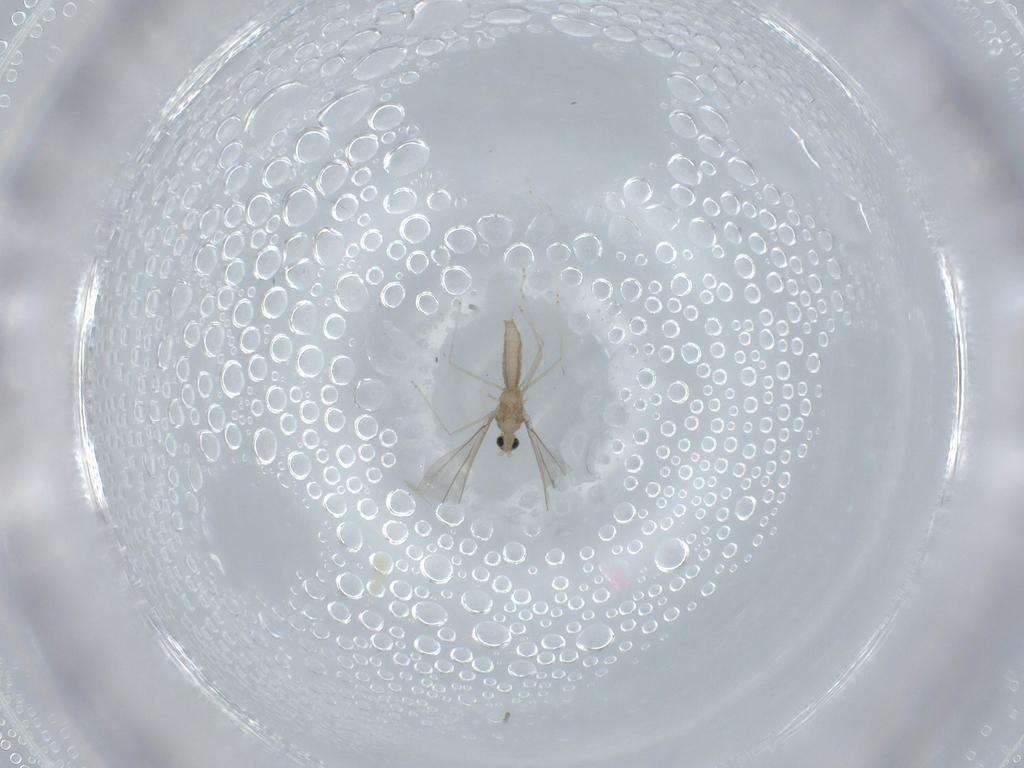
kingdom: Animalia
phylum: Arthropoda
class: Insecta
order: Diptera
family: Cecidomyiidae
